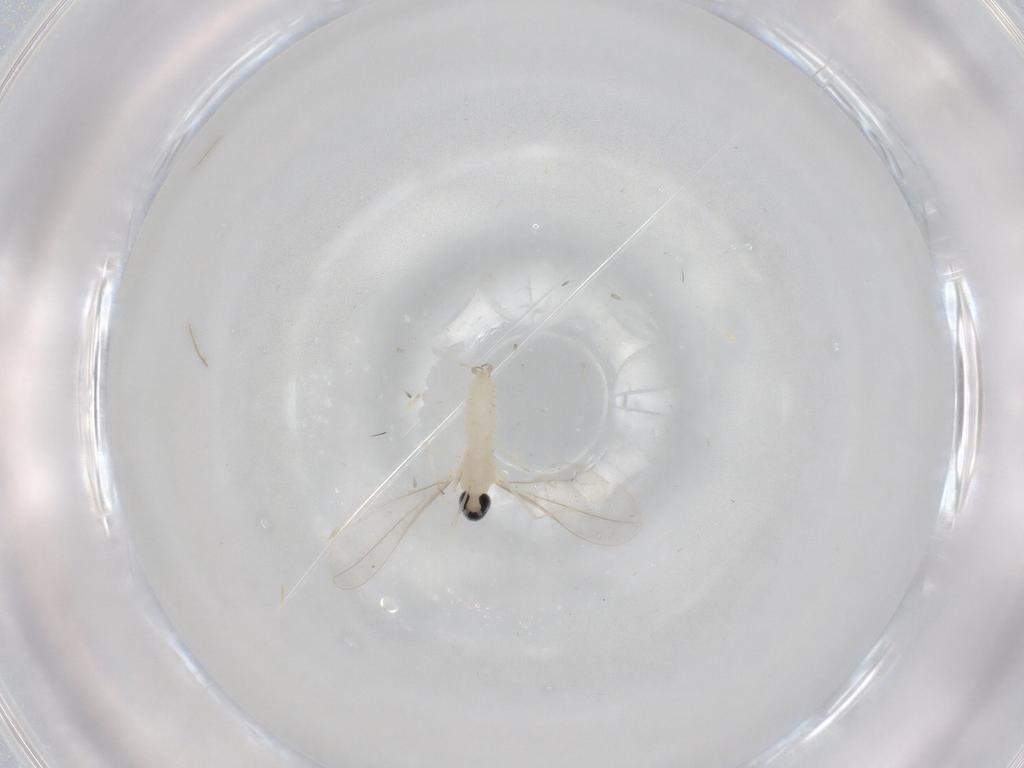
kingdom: Animalia
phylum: Arthropoda
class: Insecta
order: Diptera
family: Cecidomyiidae
